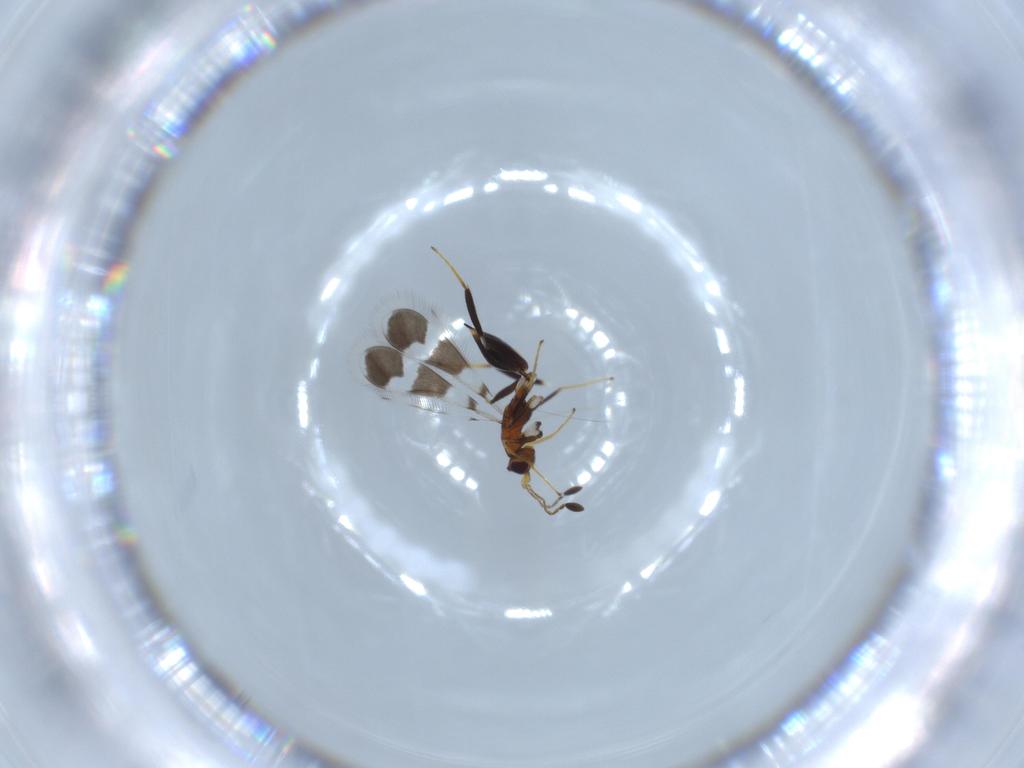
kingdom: Animalia
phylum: Arthropoda
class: Insecta
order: Hymenoptera
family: Mymaridae
